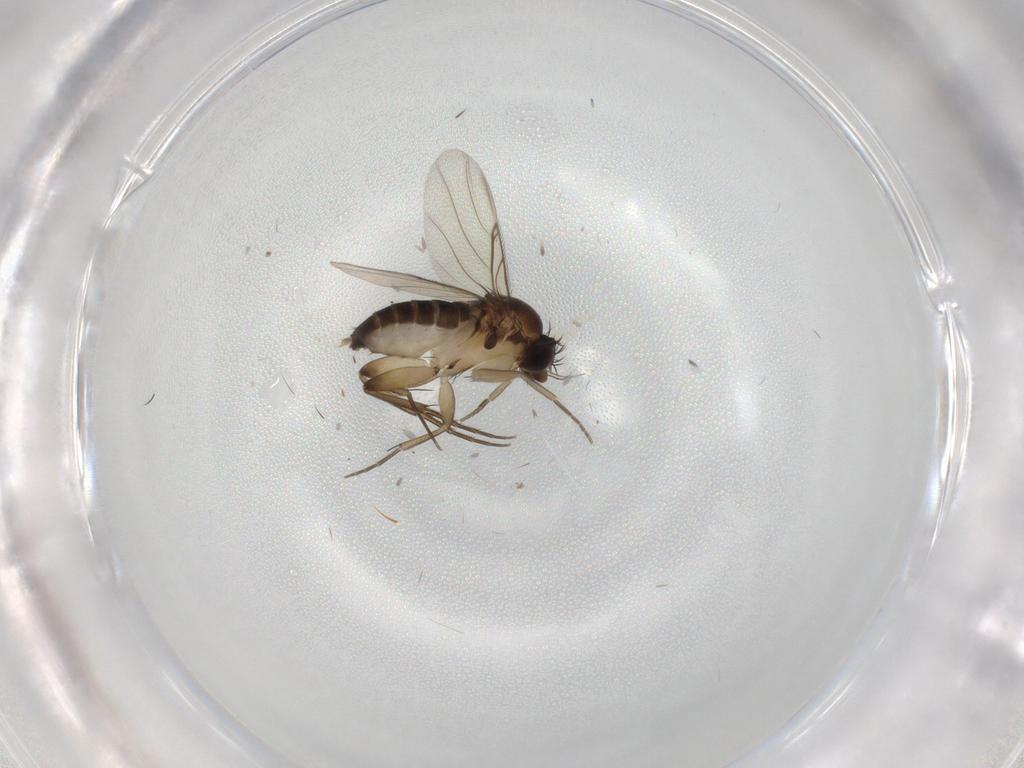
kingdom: Animalia
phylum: Arthropoda
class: Insecta
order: Diptera
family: Phoridae
